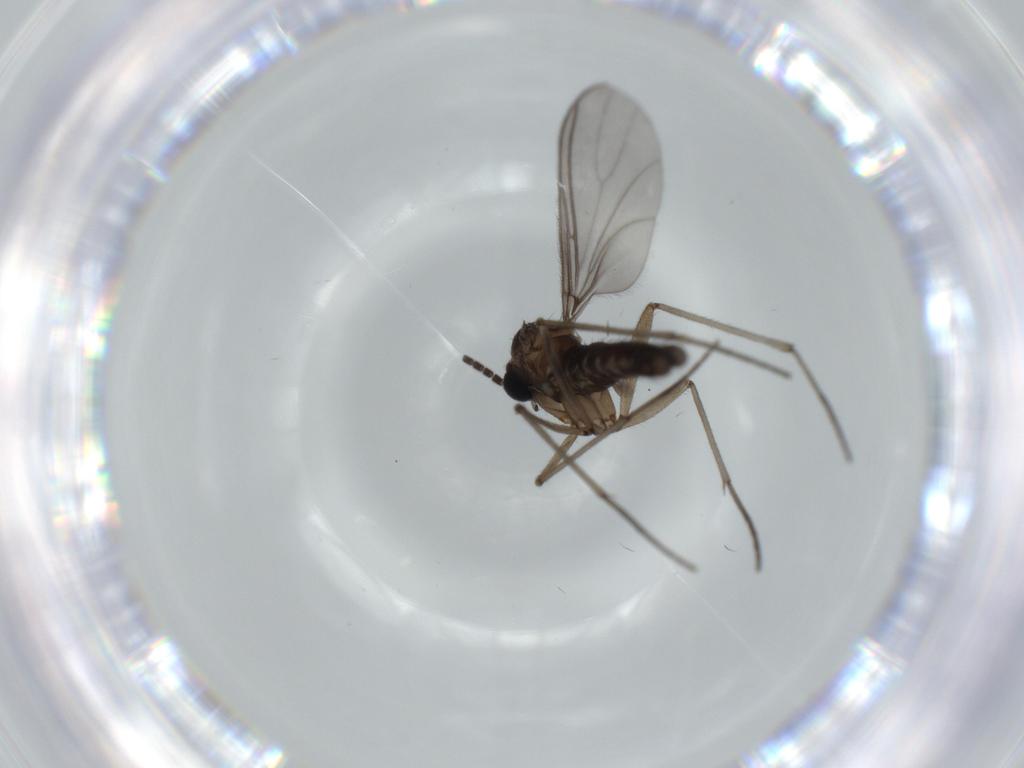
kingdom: Animalia
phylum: Arthropoda
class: Insecta
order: Diptera
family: Sciaridae
